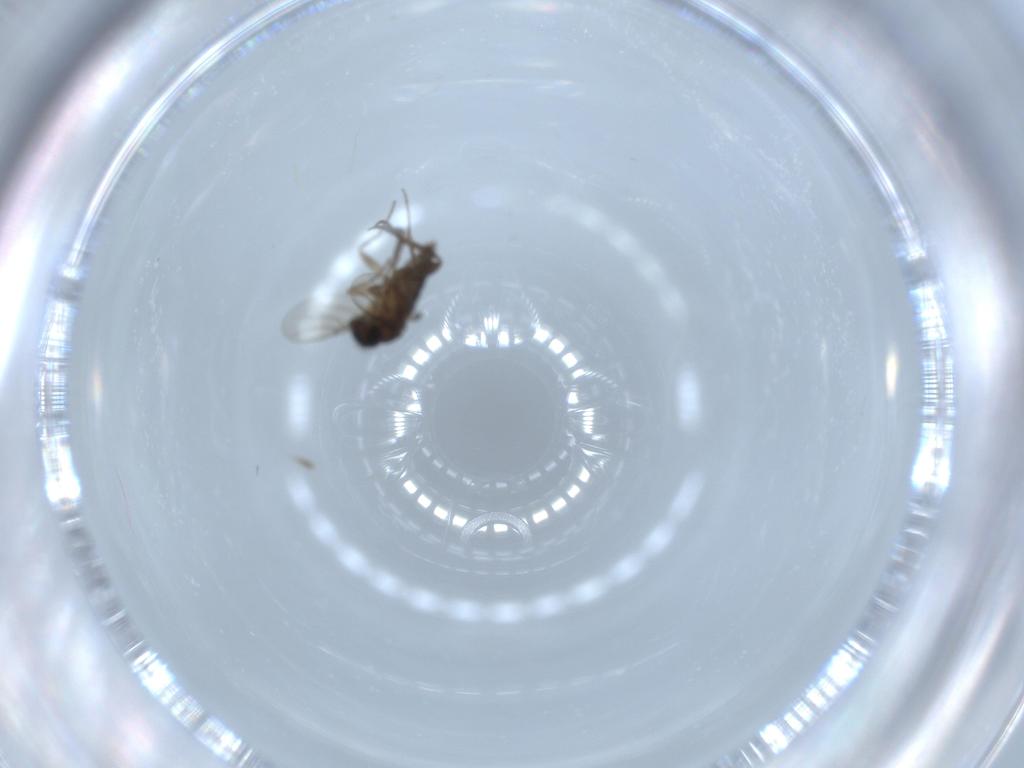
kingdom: Animalia
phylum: Arthropoda
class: Insecta
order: Diptera
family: Phoridae
